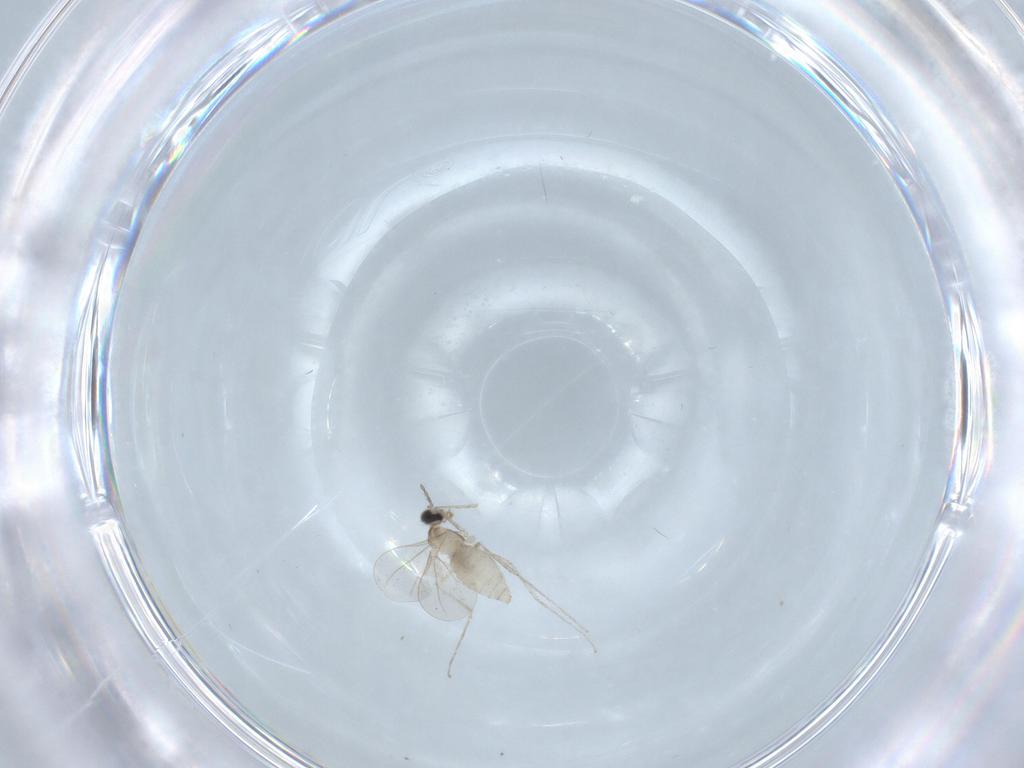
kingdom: Animalia
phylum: Arthropoda
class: Insecta
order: Diptera
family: Cecidomyiidae
